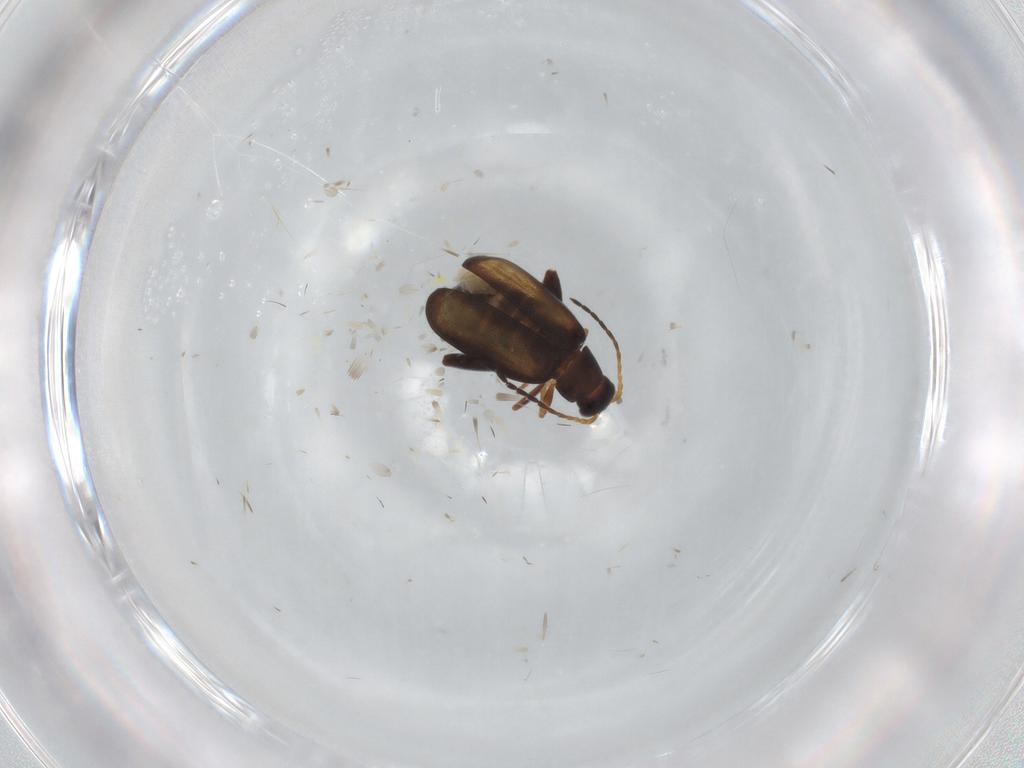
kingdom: Animalia
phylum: Arthropoda
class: Insecta
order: Coleoptera
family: Chrysomelidae
